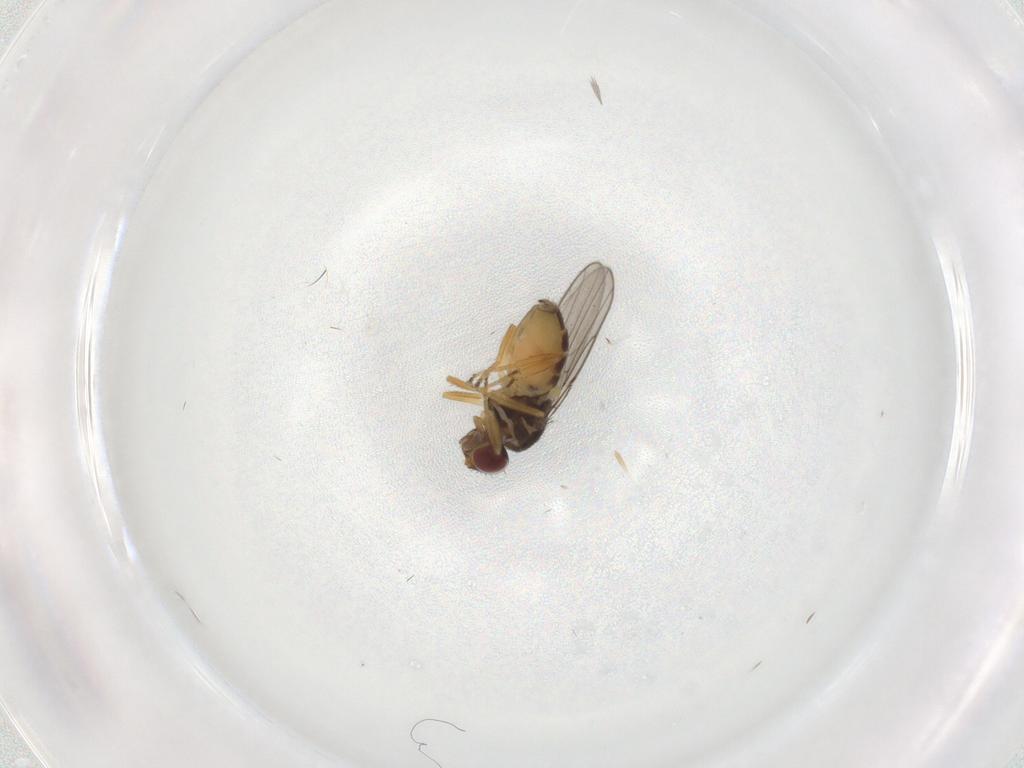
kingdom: Animalia
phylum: Arthropoda
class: Insecta
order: Diptera
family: Chloropidae
